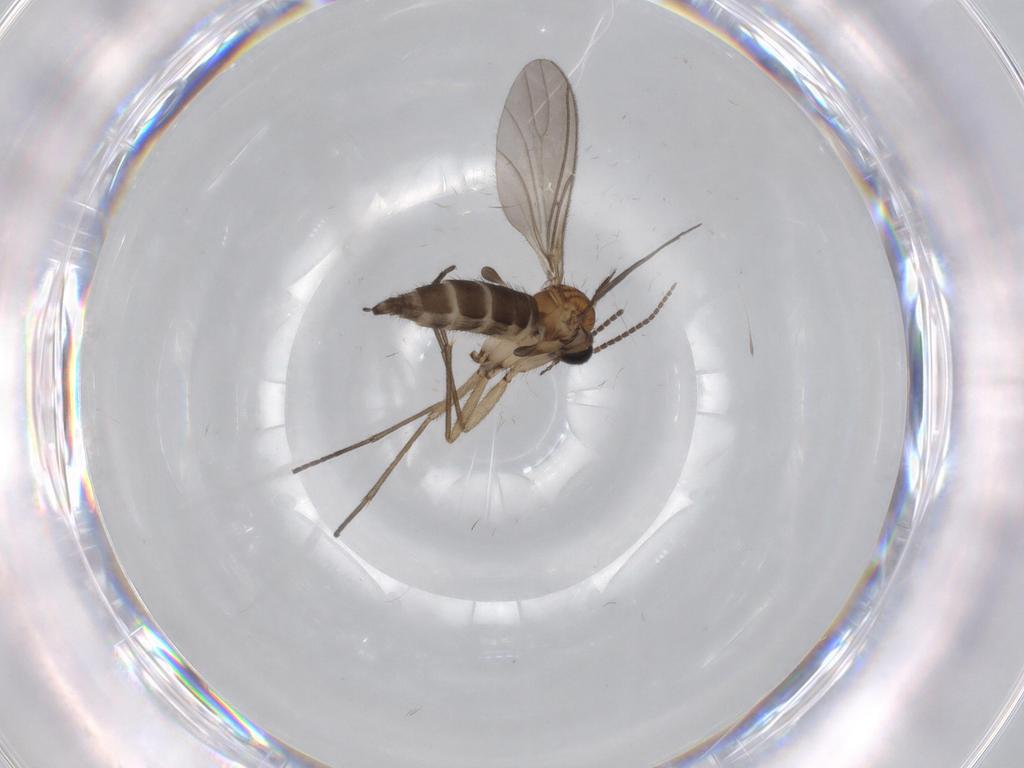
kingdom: Animalia
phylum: Arthropoda
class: Insecta
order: Diptera
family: Sciaridae
